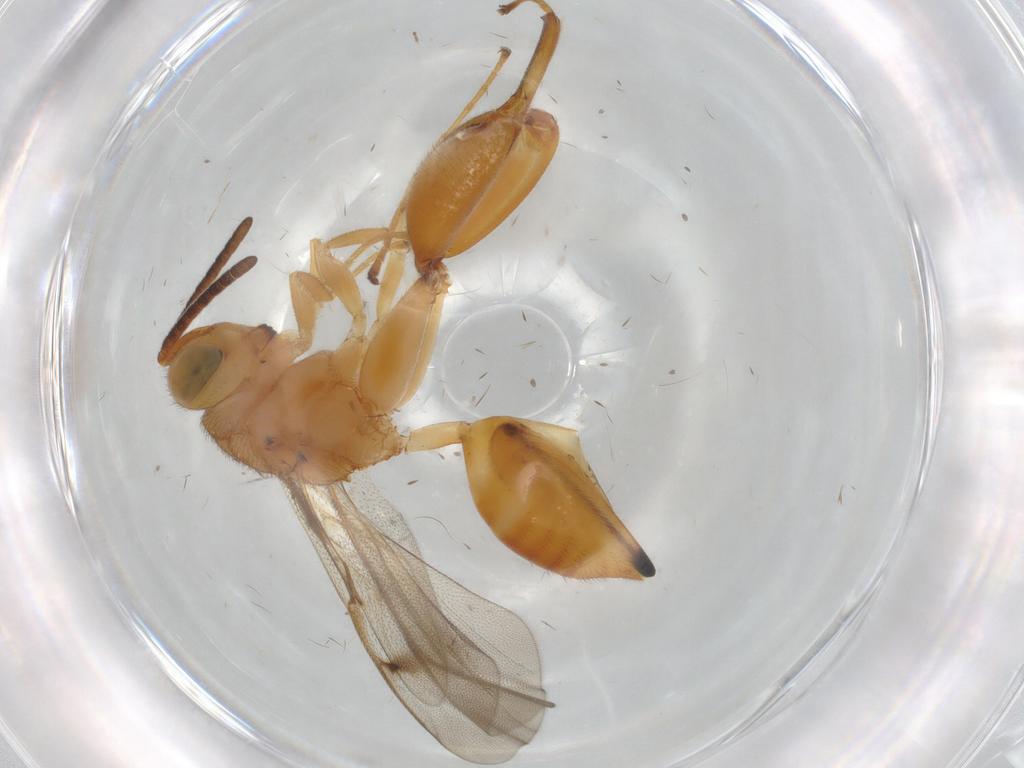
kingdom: Animalia
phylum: Arthropoda
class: Insecta
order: Hymenoptera
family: Chalcididae
